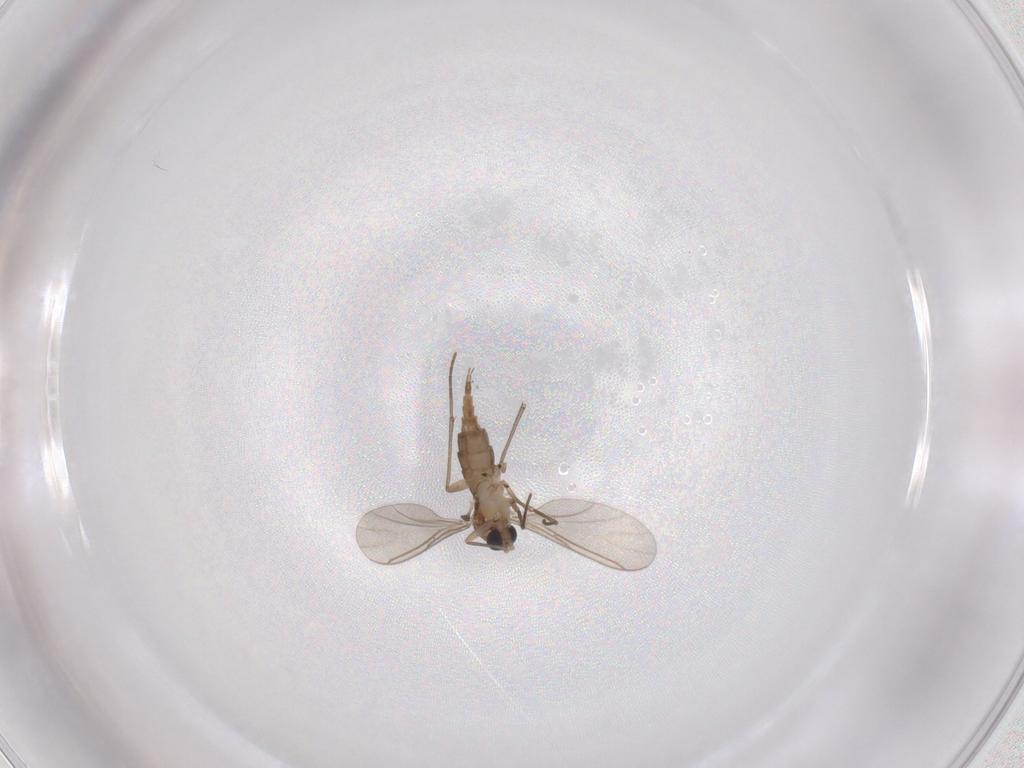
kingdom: Animalia
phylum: Arthropoda
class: Insecta
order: Diptera
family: Sciaridae
